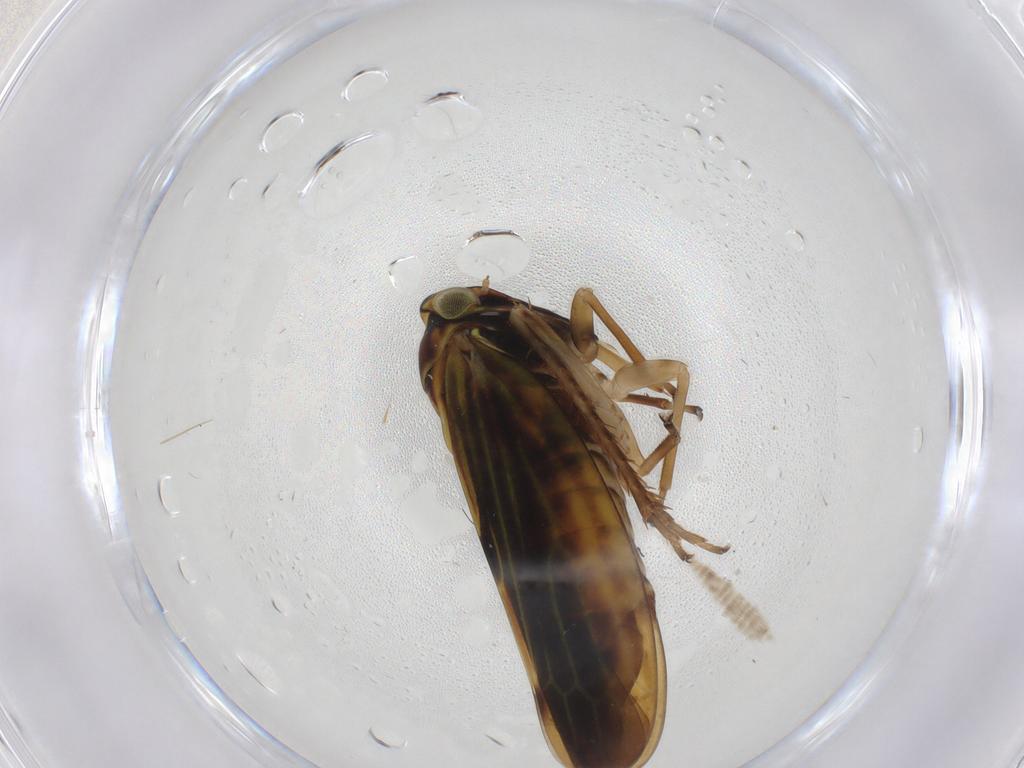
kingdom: Animalia
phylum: Arthropoda
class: Insecta
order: Hemiptera
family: Cicadellidae
